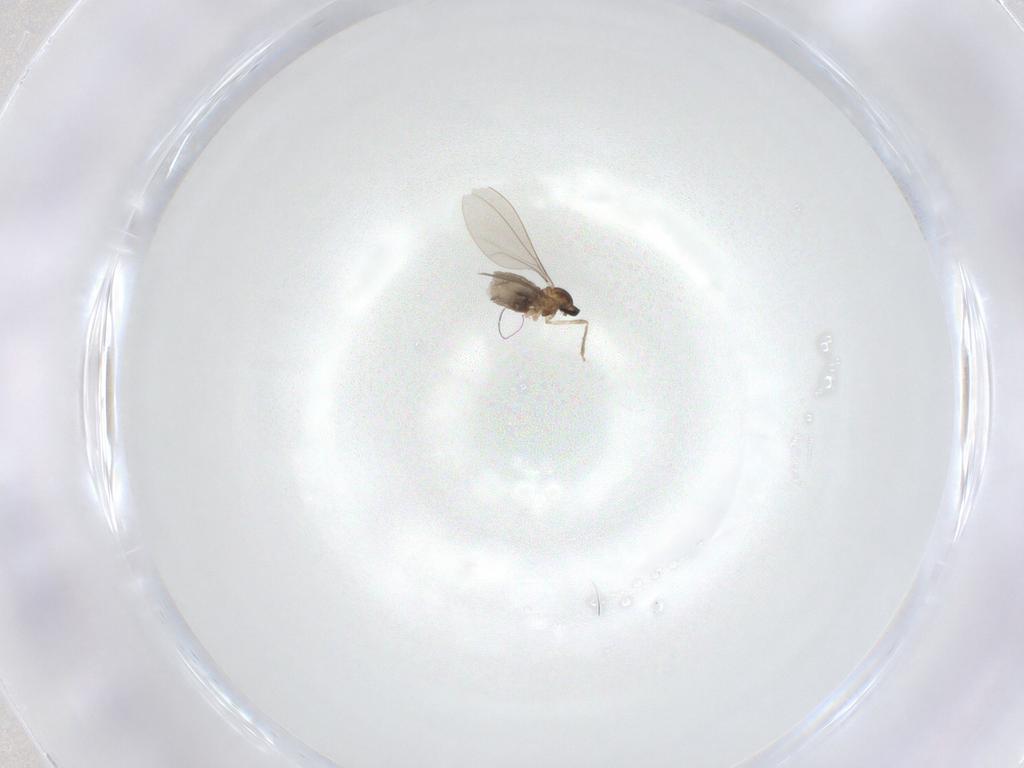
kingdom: Animalia
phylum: Arthropoda
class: Insecta
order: Diptera
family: Cecidomyiidae
